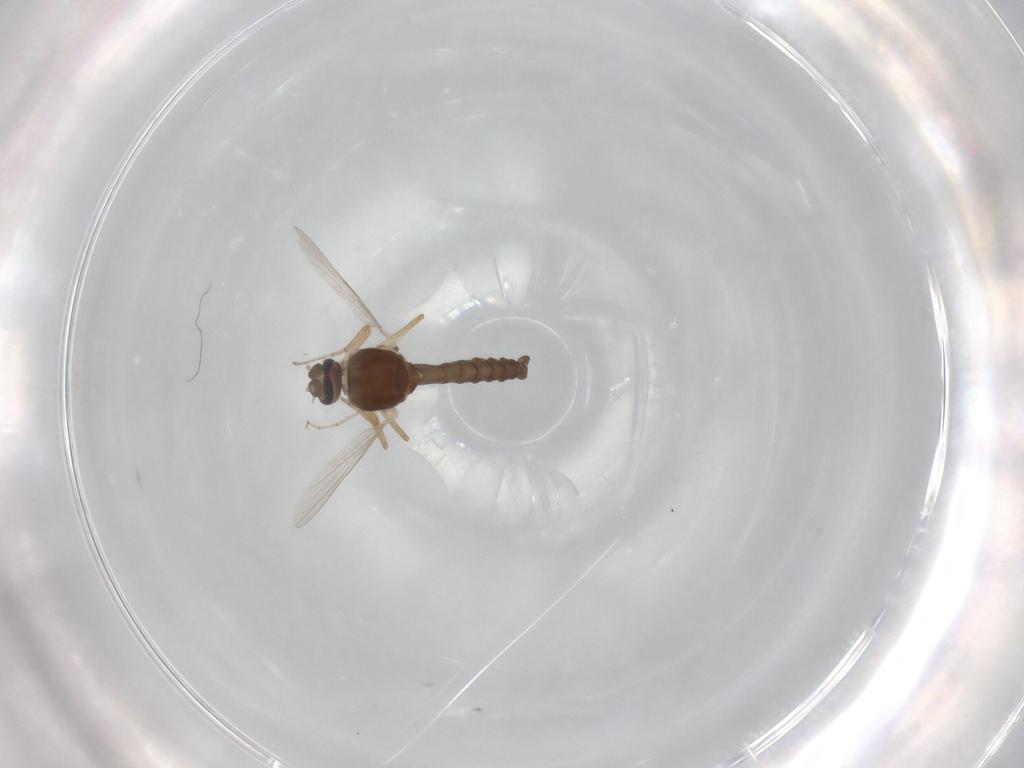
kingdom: Animalia
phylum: Arthropoda
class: Insecta
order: Diptera
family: Ceratopogonidae
